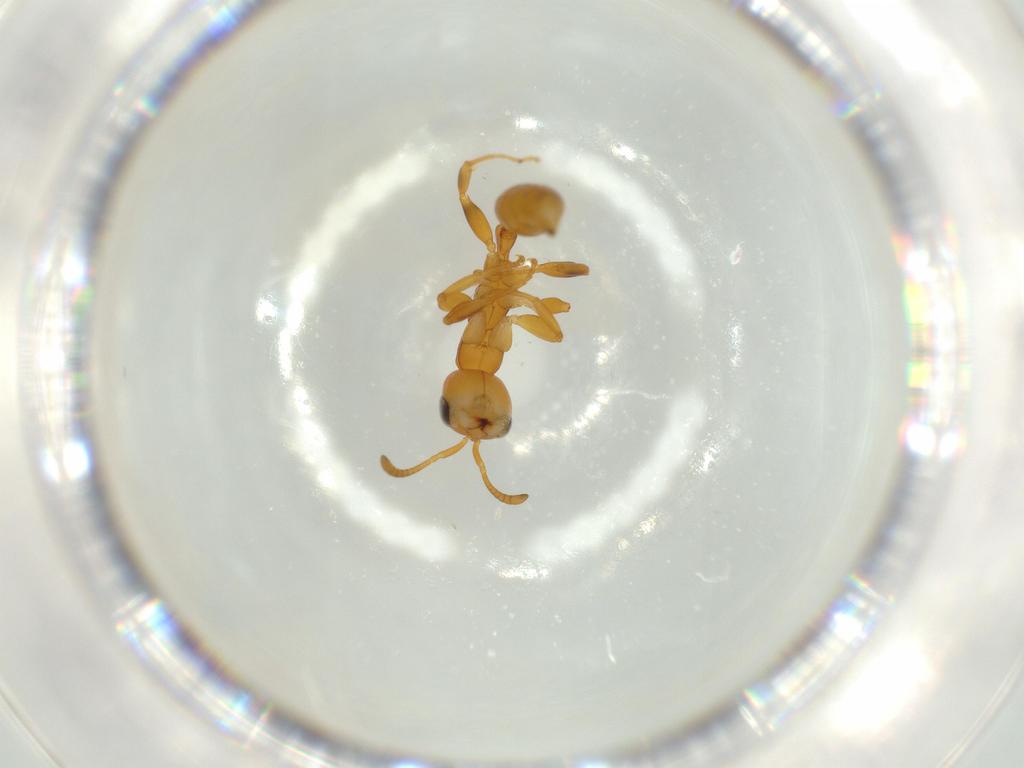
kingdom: Animalia
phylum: Arthropoda
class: Insecta
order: Hymenoptera
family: Formicidae
